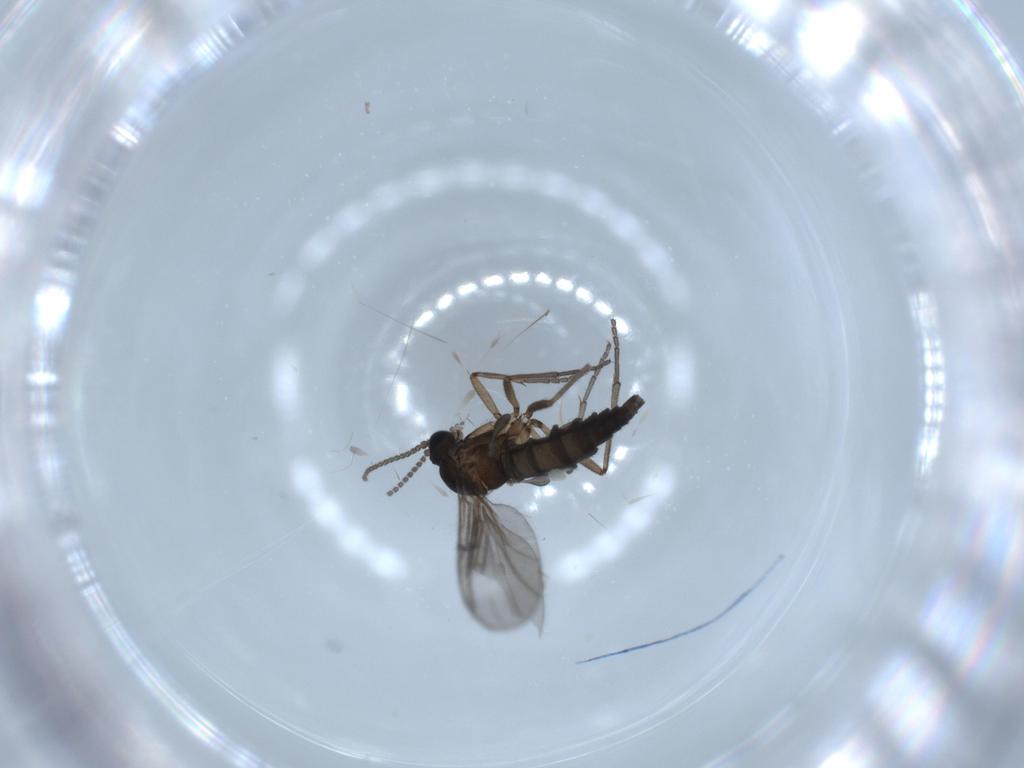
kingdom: Animalia
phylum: Arthropoda
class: Insecta
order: Diptera
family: Sciaridae
